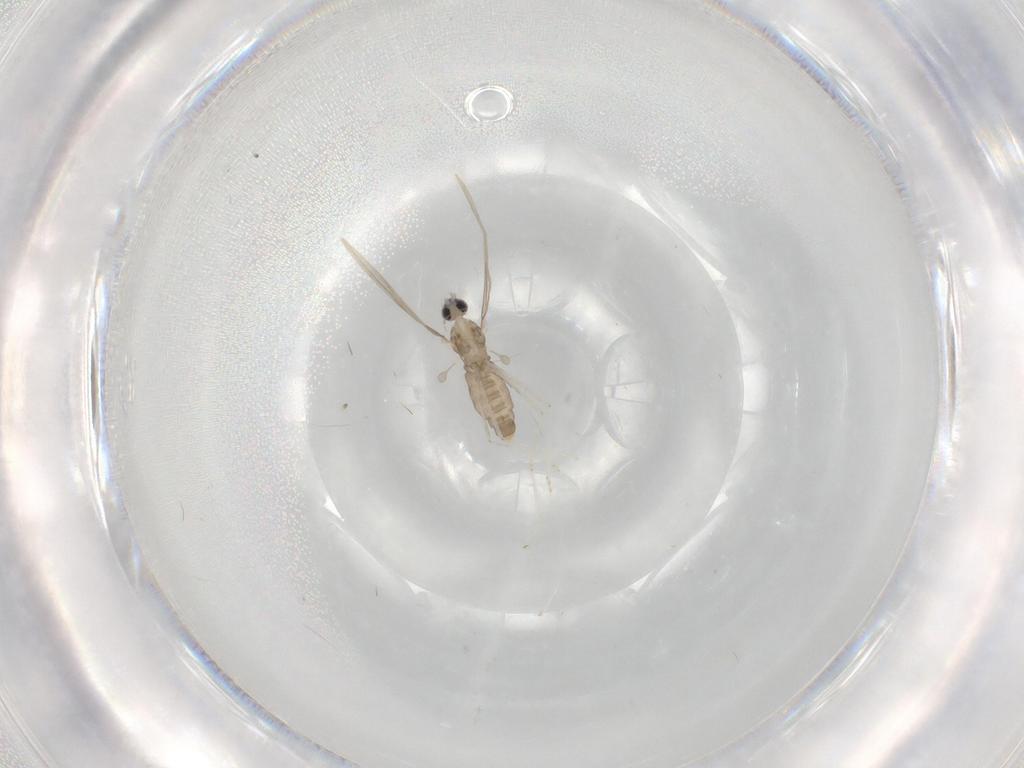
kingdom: Animalia
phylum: Arthropoda
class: Insecta
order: Diptera
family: Cecidomyiidae
